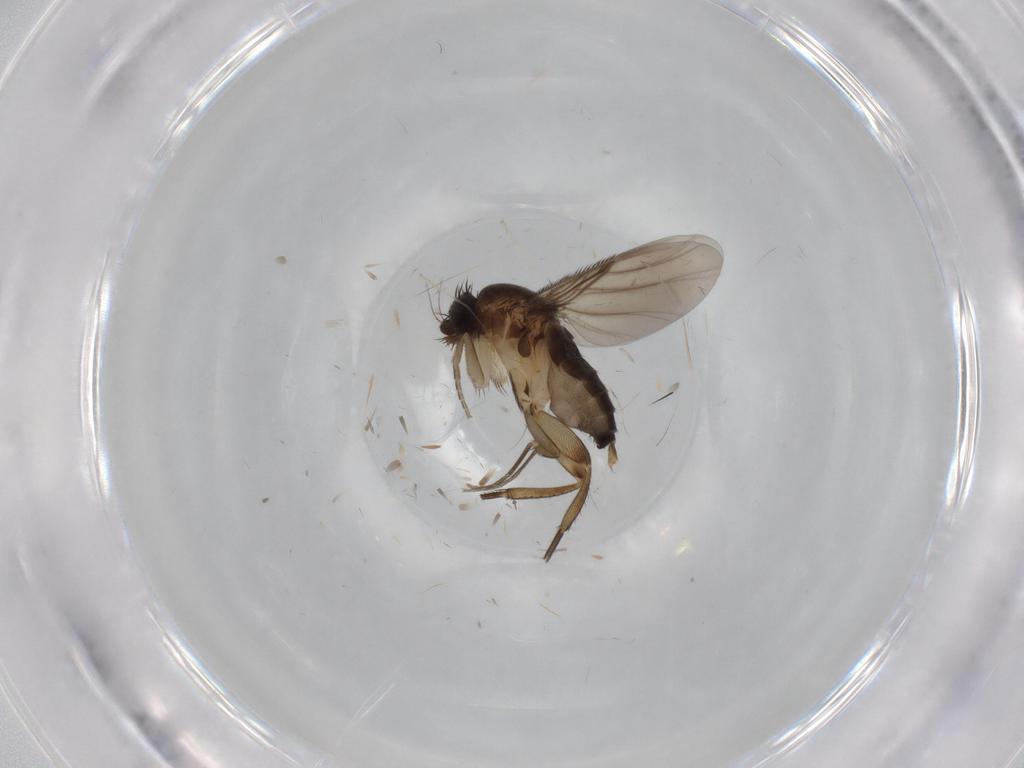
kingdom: Animalia
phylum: Arthropoda
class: Insecta
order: Diptera
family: Phoridae
